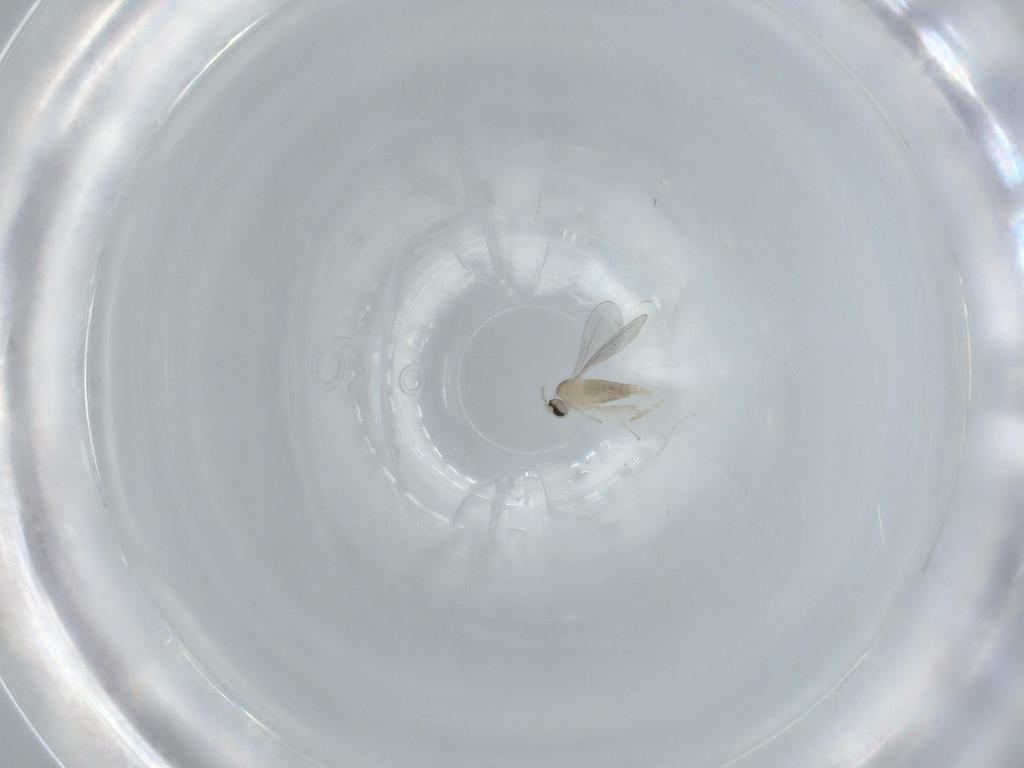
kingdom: Animalia
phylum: Arthropoda
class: Insecta
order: Diptera
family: Cecidomyiidae
